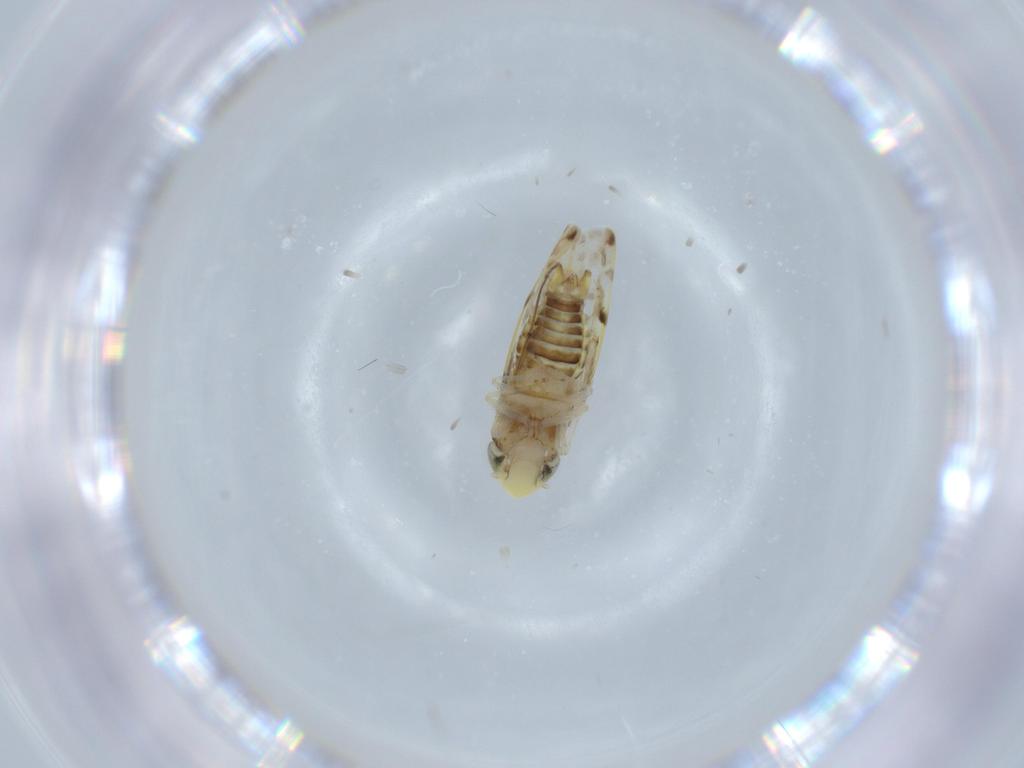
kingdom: Animalia
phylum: Arthropoda
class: Insecta
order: Hemiptera
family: Cicadellidae
